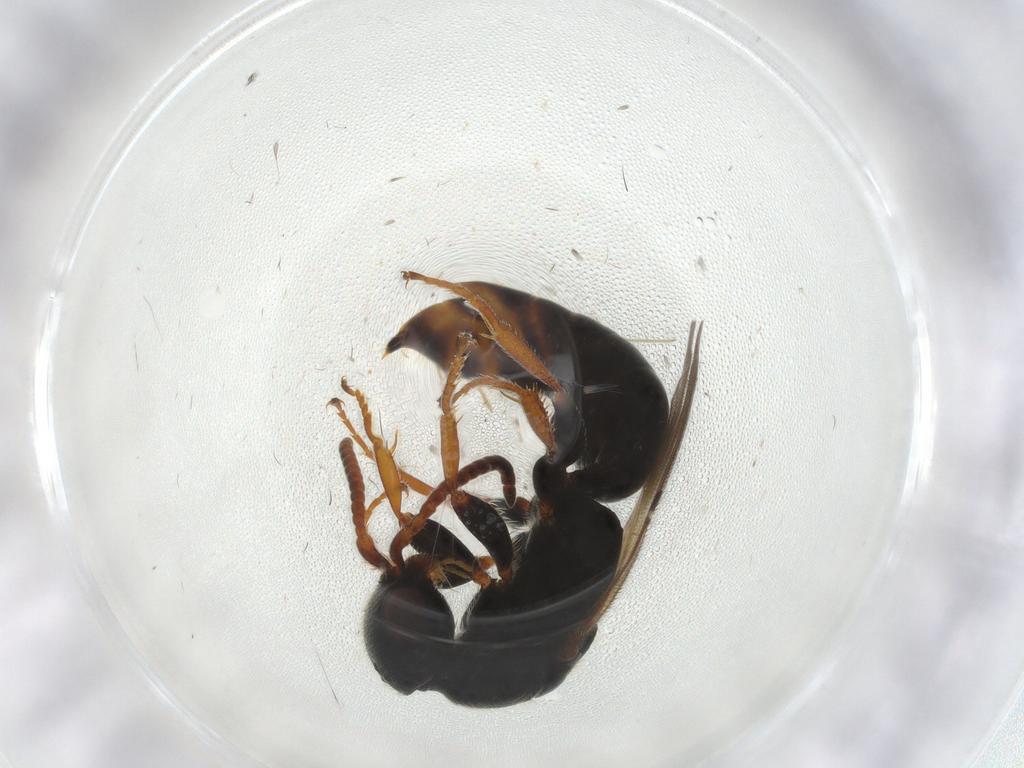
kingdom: Animalia
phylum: Arthropoda
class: Insecta
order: Hymenoptera
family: Bethylidae
